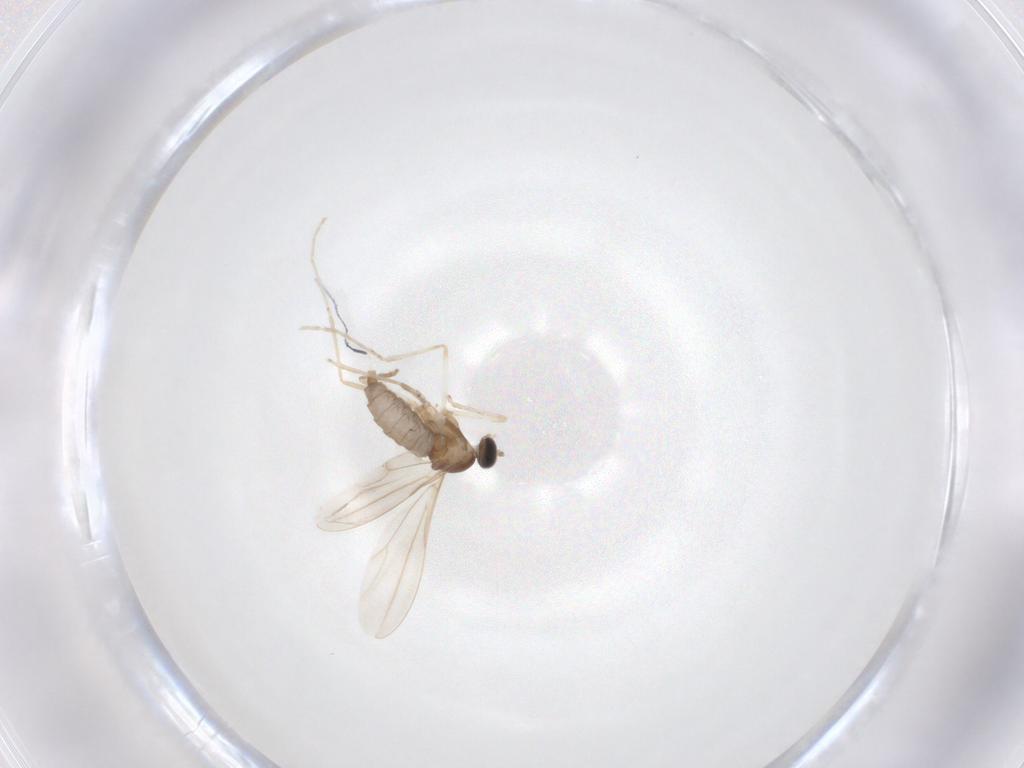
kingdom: Animalia
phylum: Arthropoda
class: Insecta
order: Diptera
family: Cecidomyiidae
